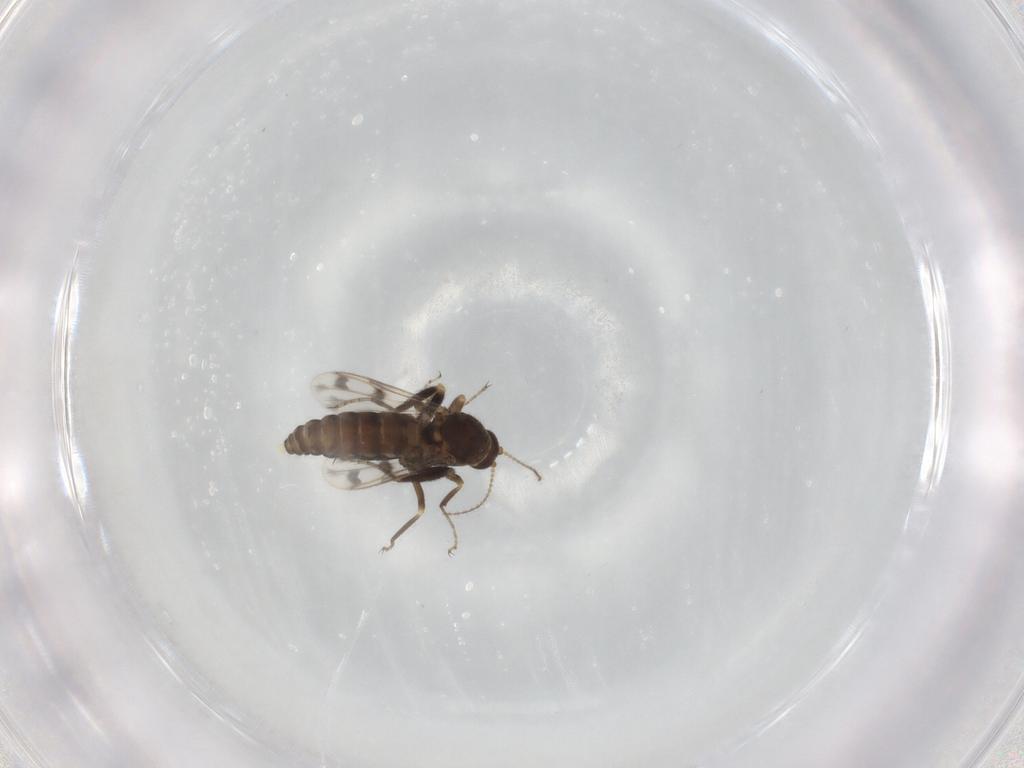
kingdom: Animalia
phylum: Arthropoda
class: Insecta
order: Diptera
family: Ceratopogonidae
